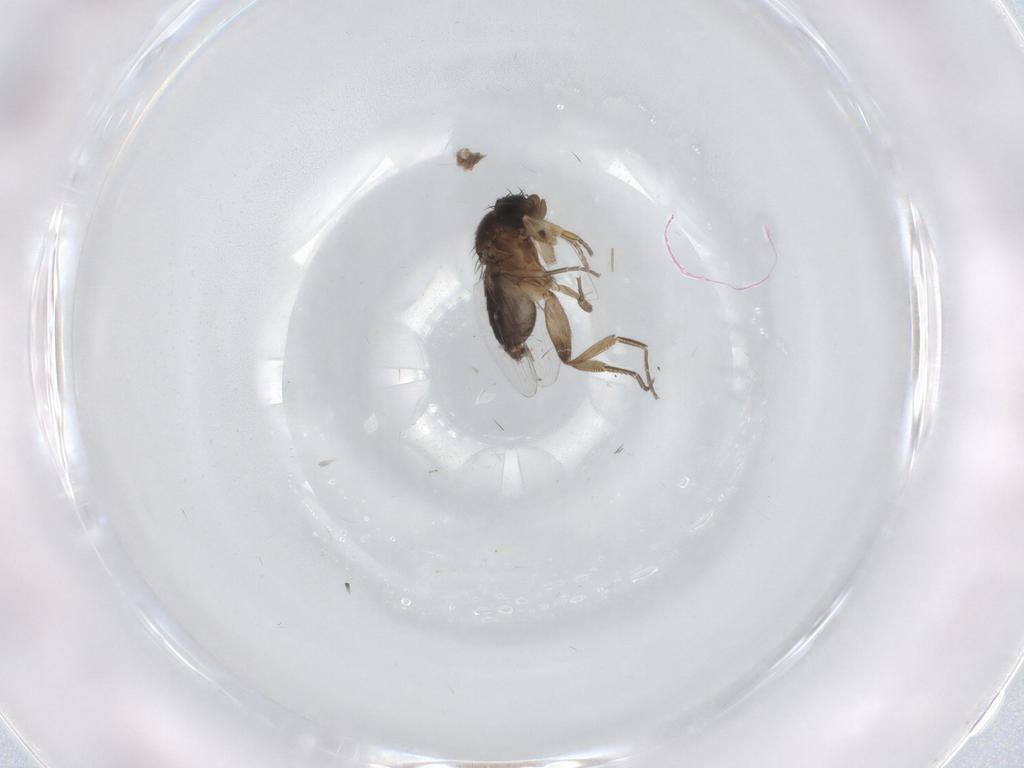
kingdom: Animalia
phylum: Arthropoda
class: Insecta
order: Diptera
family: Phoridae
